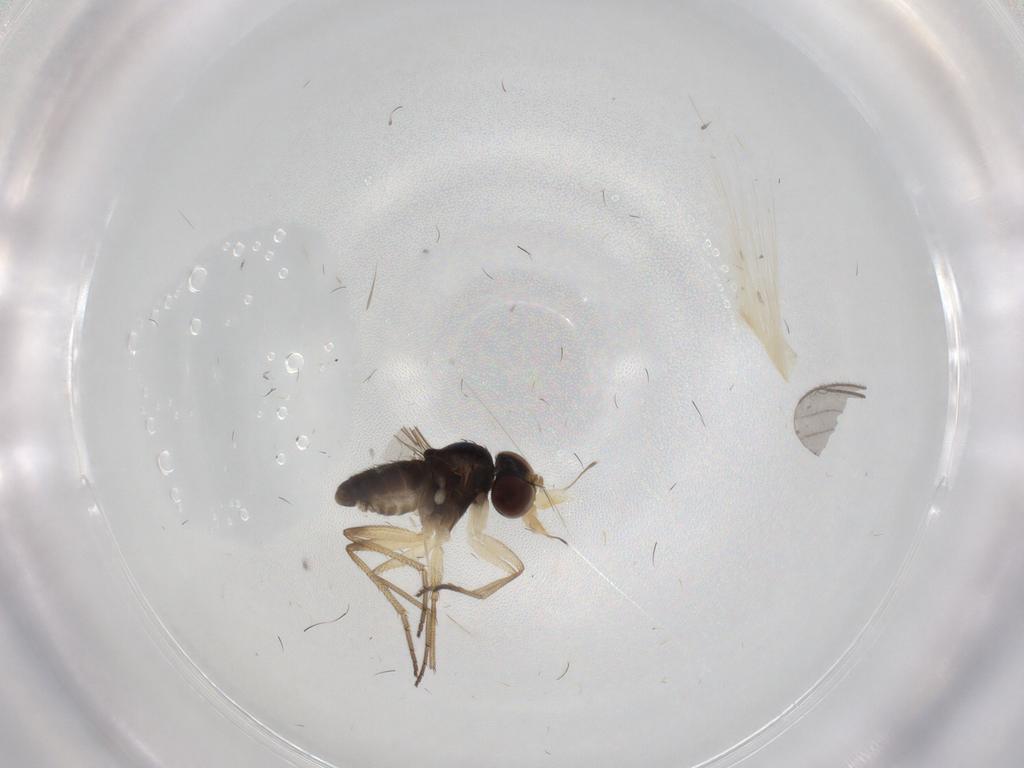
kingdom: Animalia
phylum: Arthropoda
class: Insecta
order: Diptera
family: Dolichopodidae
